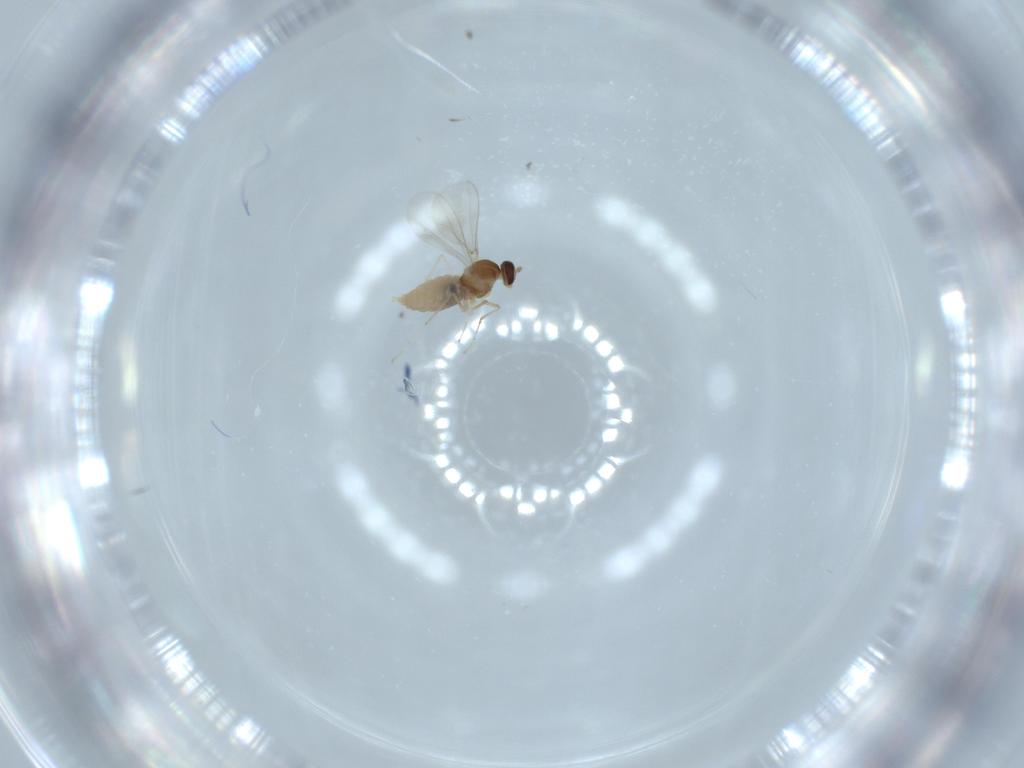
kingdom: Animalia
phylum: Arthropoda
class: Insecta
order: Diptera
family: Cecidomyiidae
